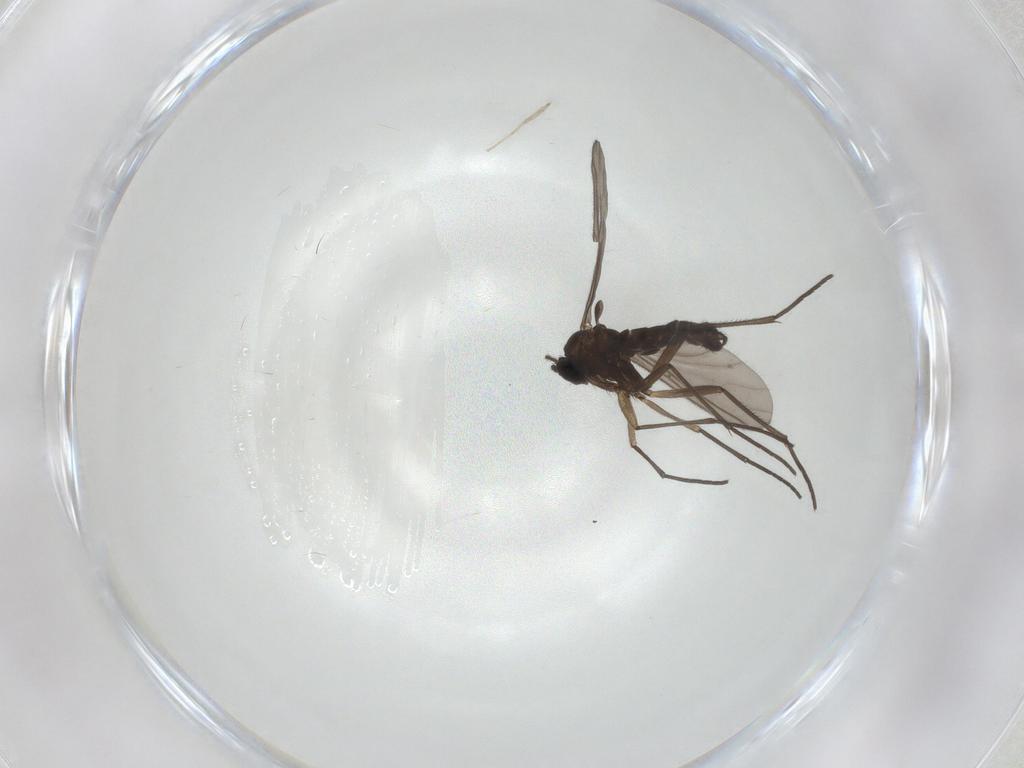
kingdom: Animalia
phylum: Arthropoda
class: Insecta
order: Diptera
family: Sciaridae
